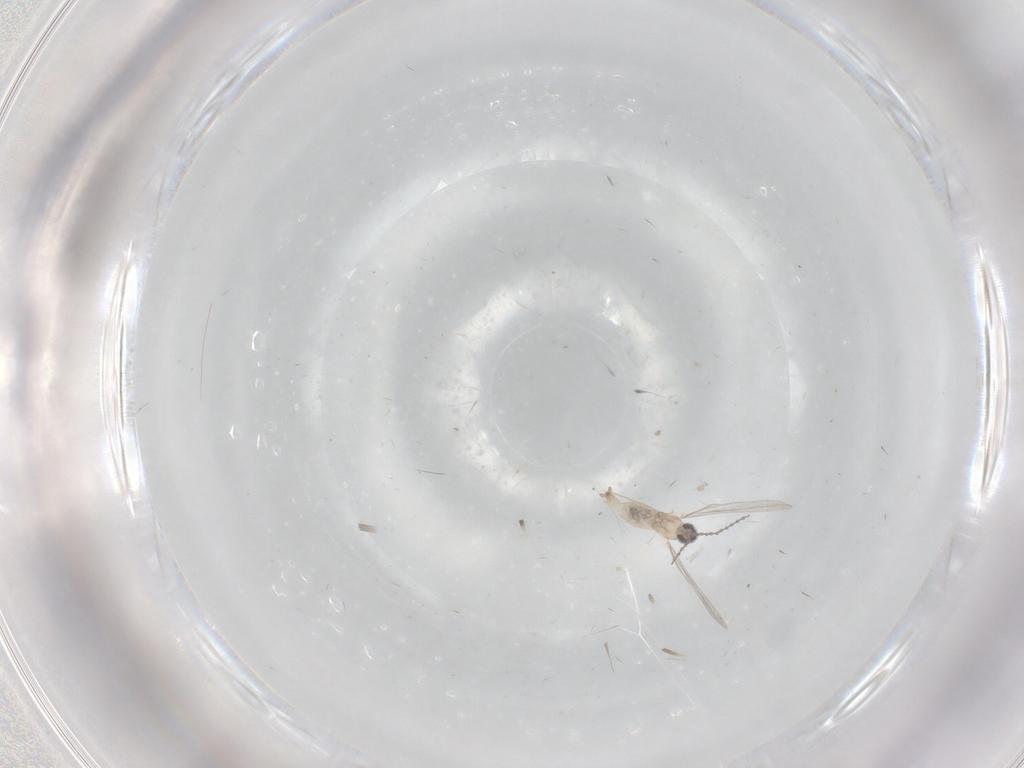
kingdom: Animalia
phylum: Arthropoda
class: Insecta
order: Diptera
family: Cecidomyiidae
